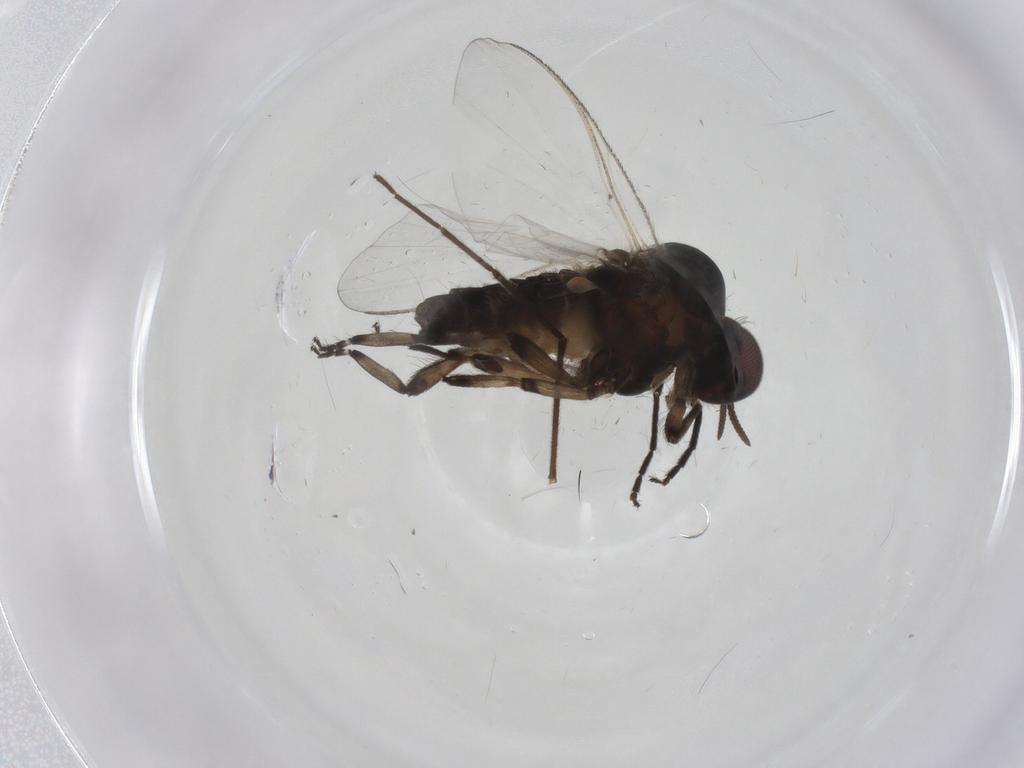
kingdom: Animalia
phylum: Arthropoda
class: Insecta
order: Diptera
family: Simuliidae
